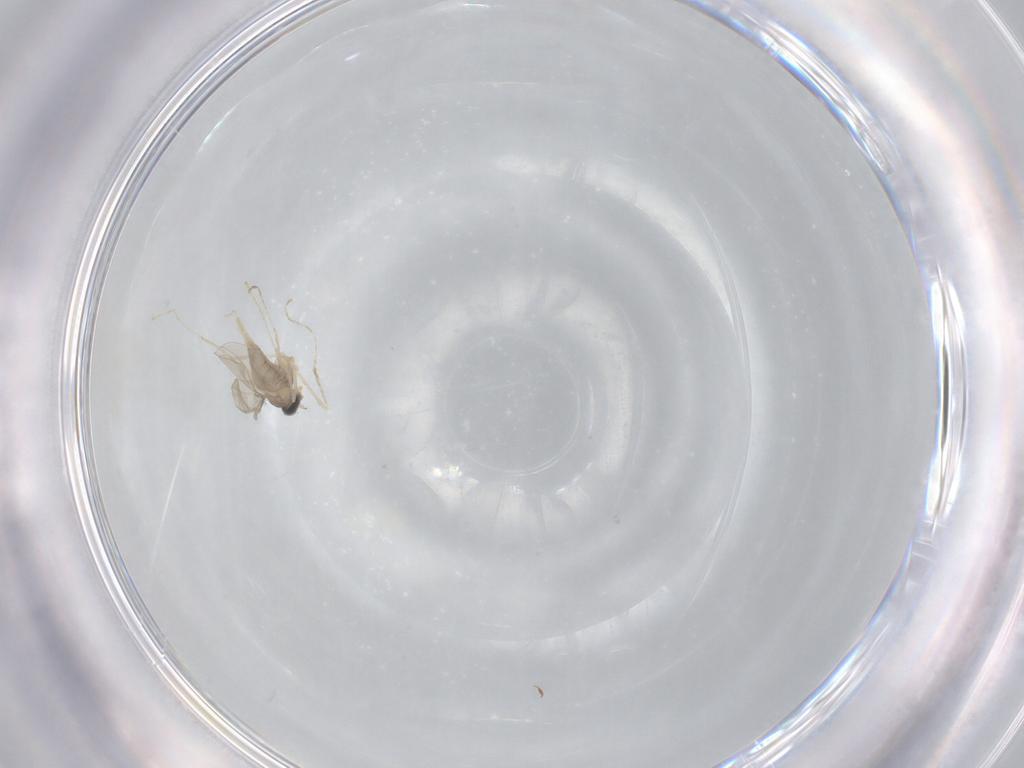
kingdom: Animalia
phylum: Arthropoda
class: Insecta
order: Diptera
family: Cecidomyiidae
